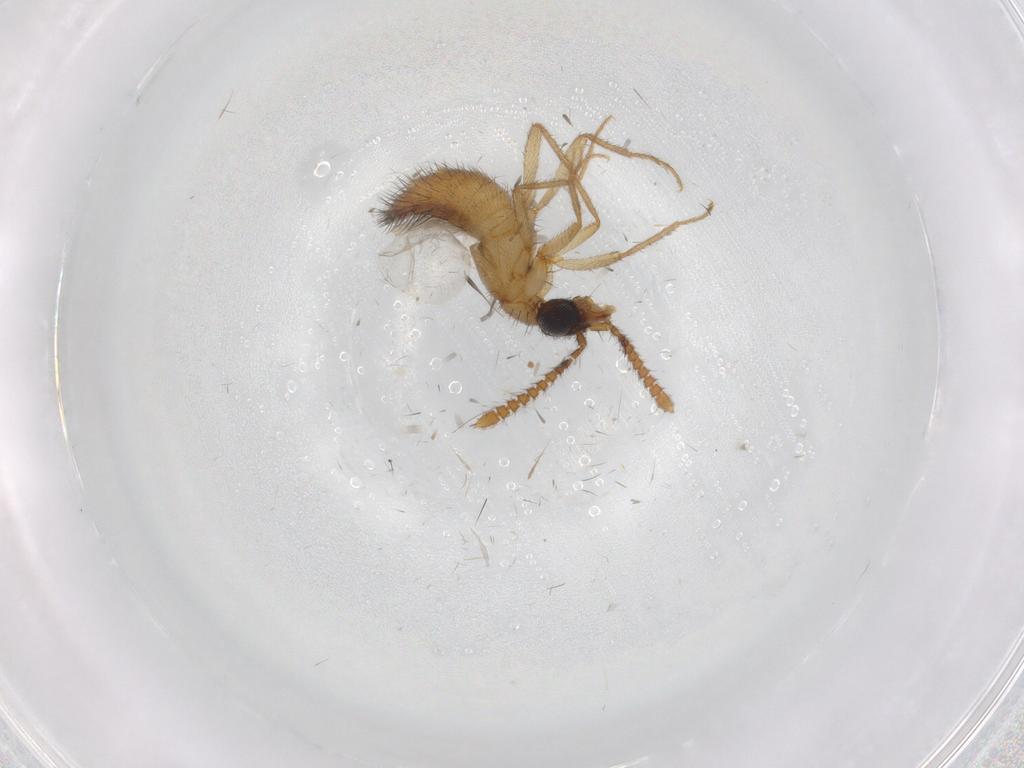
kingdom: Animalia
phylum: Arthropoda
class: Insecta
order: Coleoptera
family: Staphylinidae
